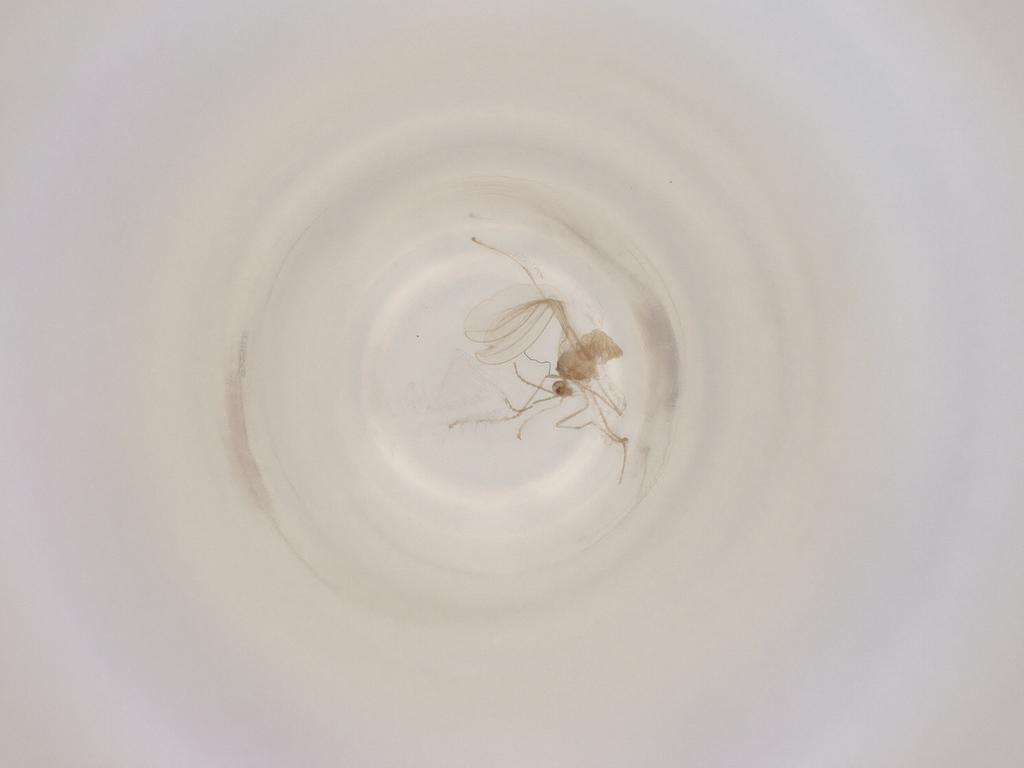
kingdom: Animalia
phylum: Arthropoda
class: Insecta
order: Diptera
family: Cecidomyiidae
